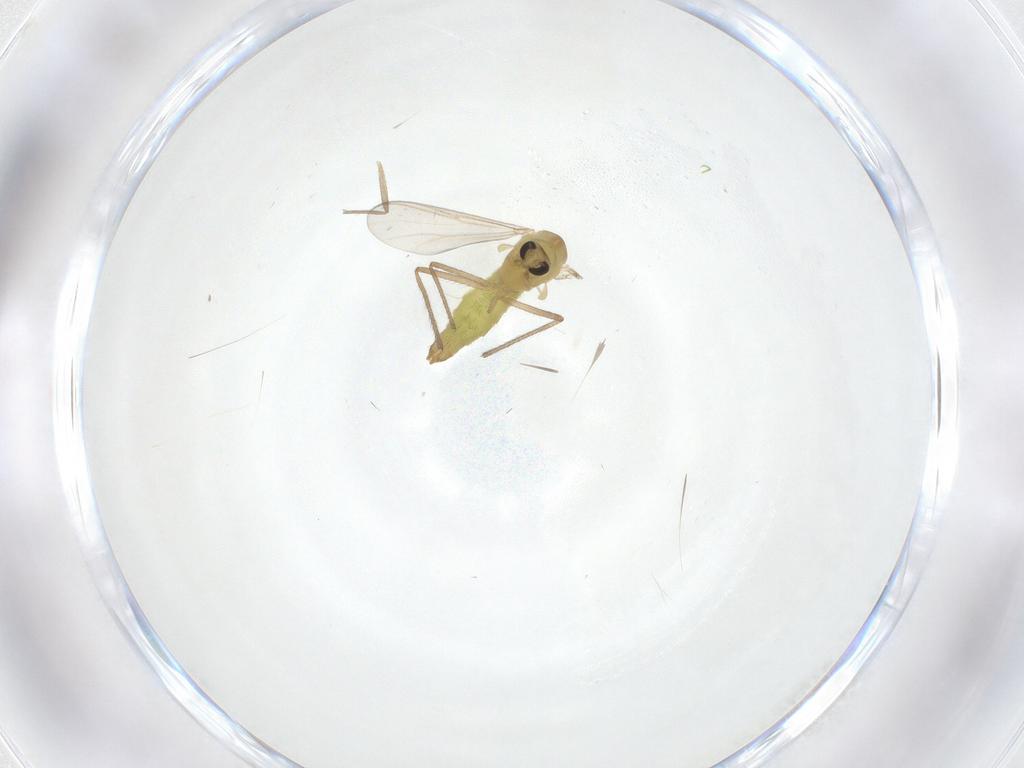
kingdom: Animalia
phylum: Arthropoda
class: Insecta
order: Diptera
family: Chironomidae
